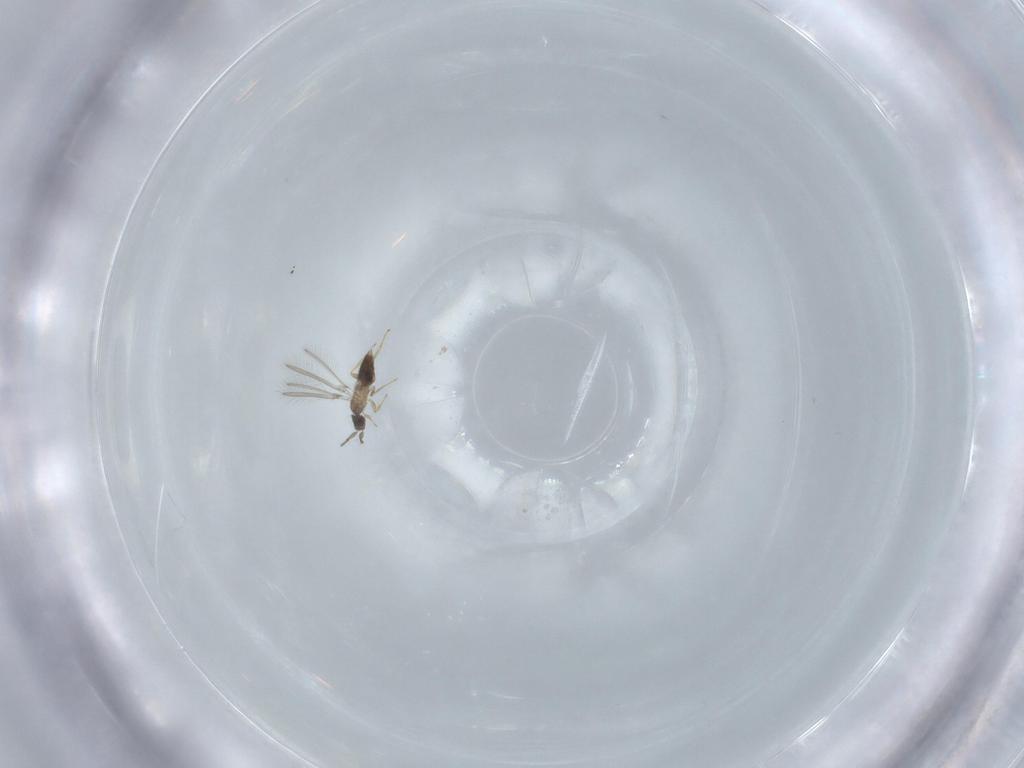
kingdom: Animalia
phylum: Arthropoda
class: Insecta
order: Hymenoptera
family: Mymaridae
